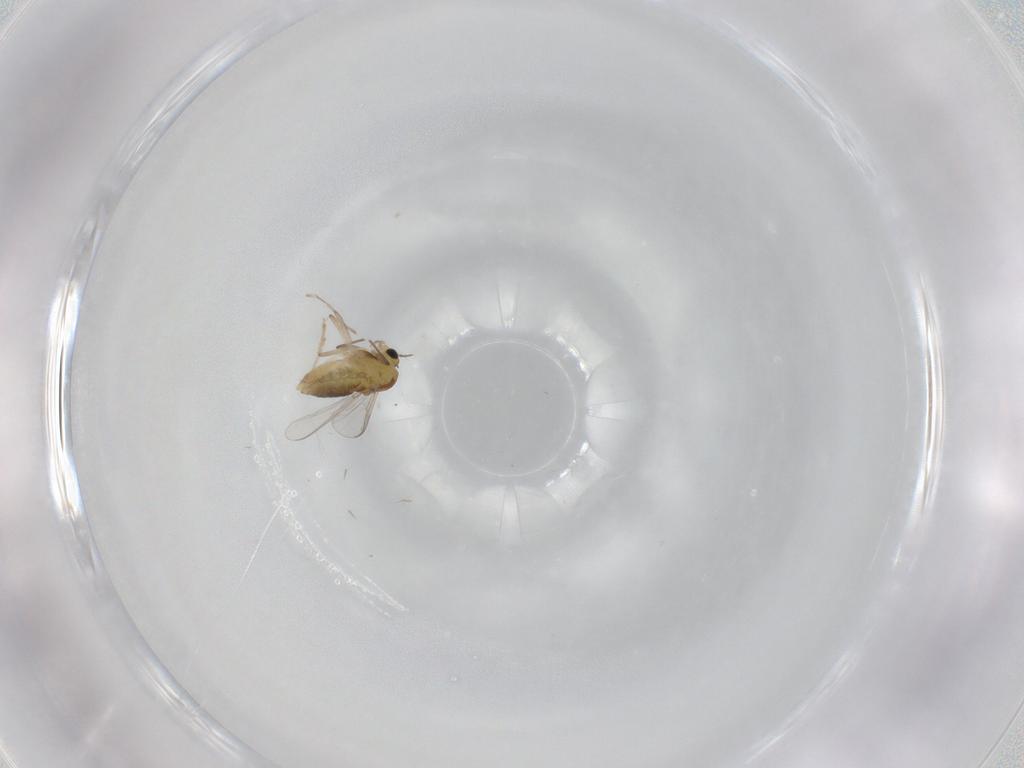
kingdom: Animalia
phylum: Arthropoda
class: Insecta
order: Diptera
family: Chironomidae
